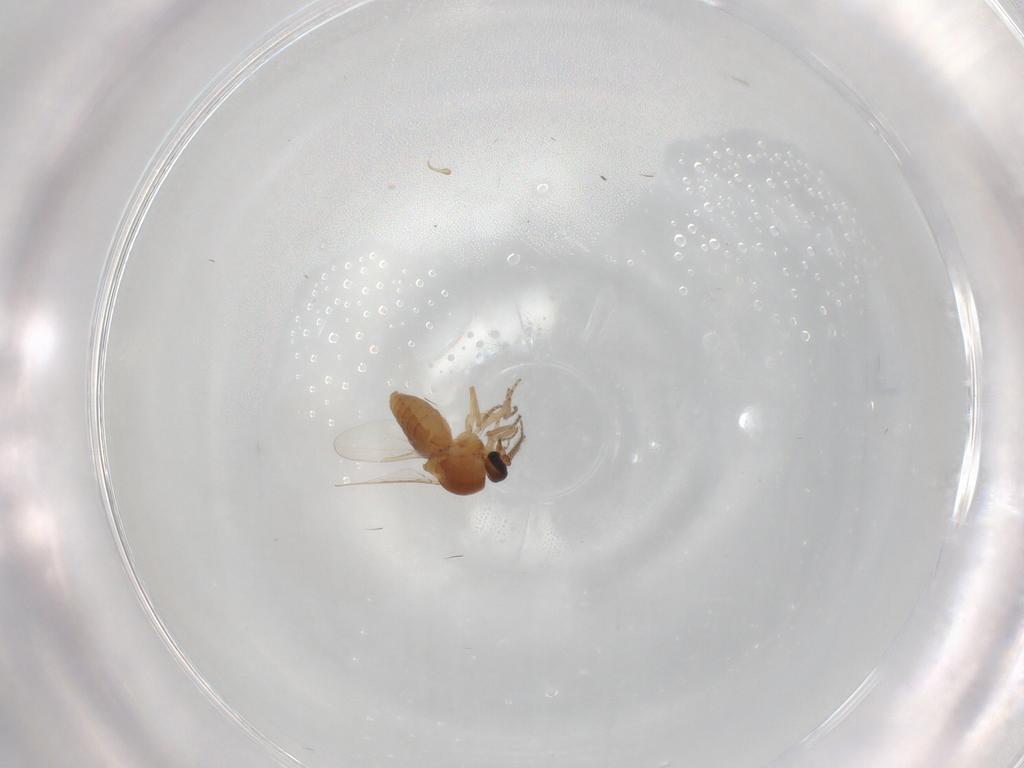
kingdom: Animalia
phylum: Arthropoda
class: Insecta
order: Diptera
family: Ceratopogonidae
